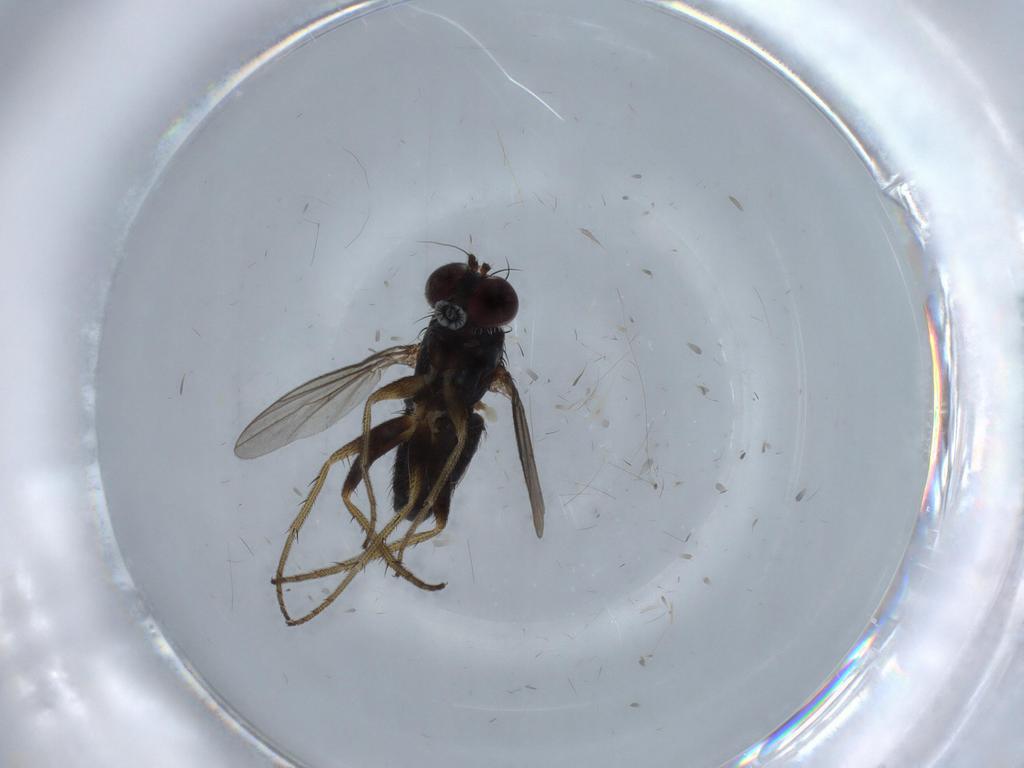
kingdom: Animalia
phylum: Arthropoda
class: Insecta
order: Diptera
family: Dolichopodidae
